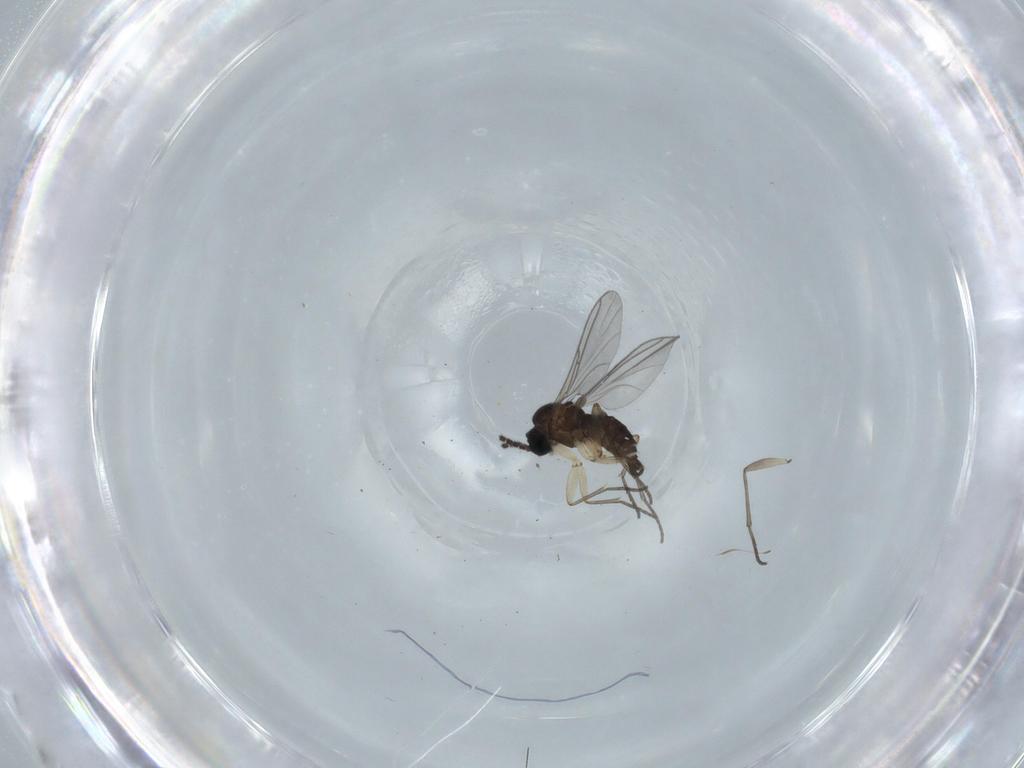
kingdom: Animalia
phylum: Arthropoda
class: Insecta
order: Diptera
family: Sciaridae
